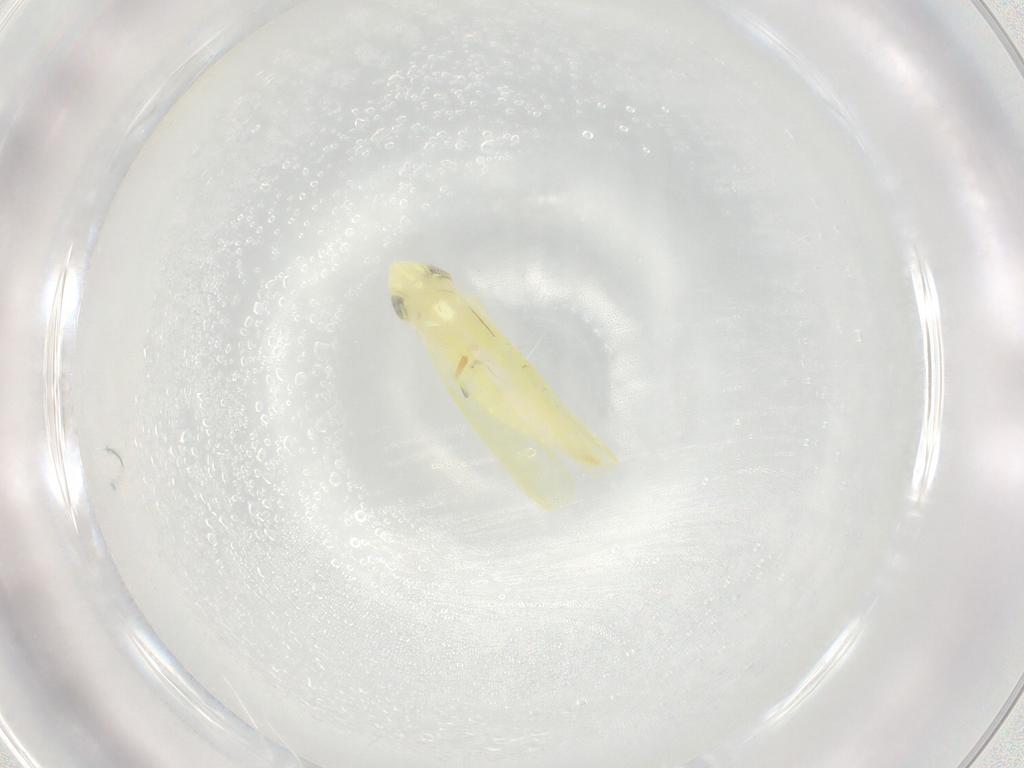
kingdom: Animalia
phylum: Arthropoda
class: Insecta
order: Hemiptera
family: Cicadellidae
